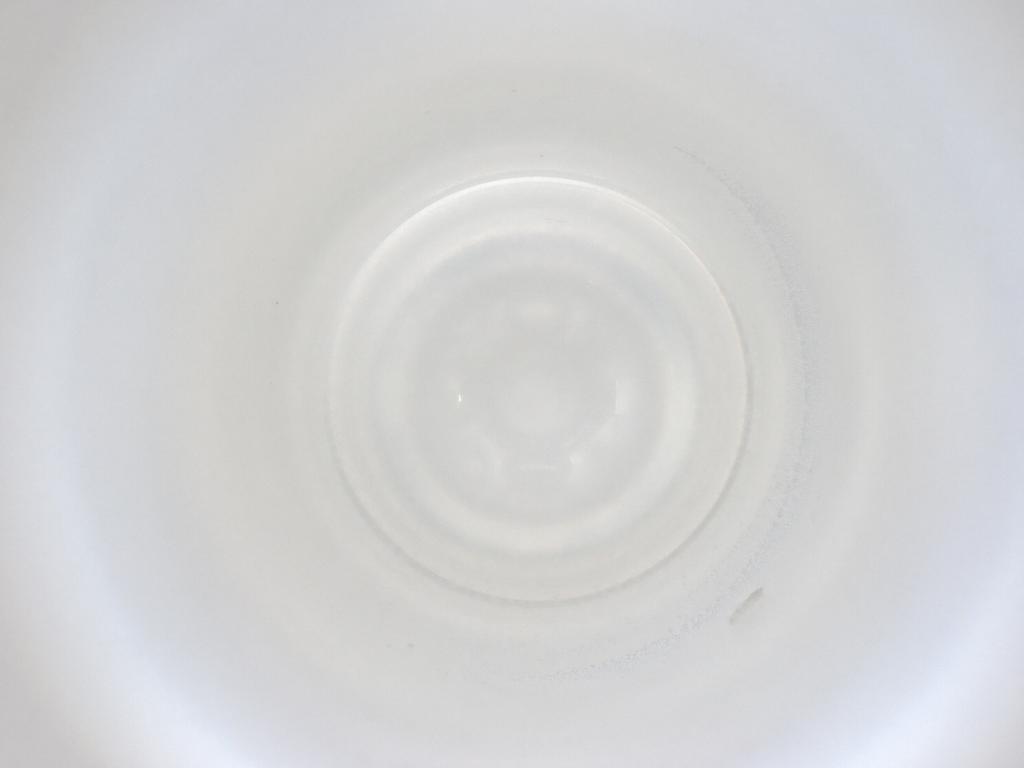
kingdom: Animalia
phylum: Arthropoda
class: Insecta
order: Diptera
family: Cecidomyiidae
